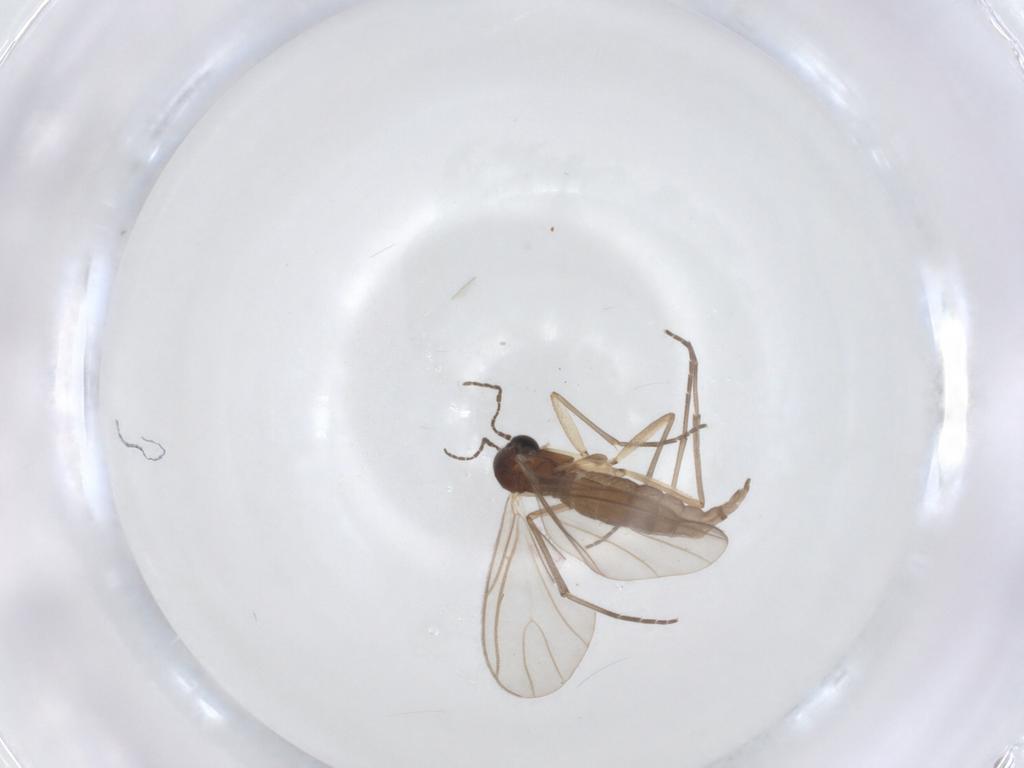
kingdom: Animalia
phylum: Arthropoda
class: Insecta
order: Diptera
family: Sciaridae
